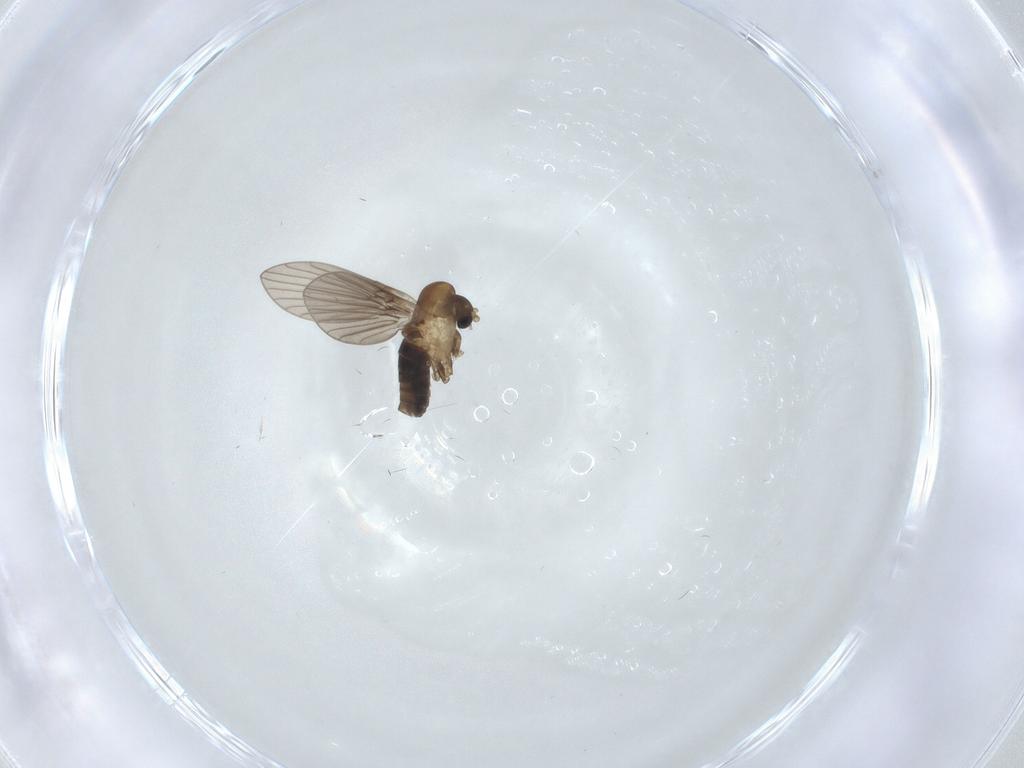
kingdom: Animalia
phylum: Arthropoda
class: Insecta
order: Diptera
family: Psychodidae
